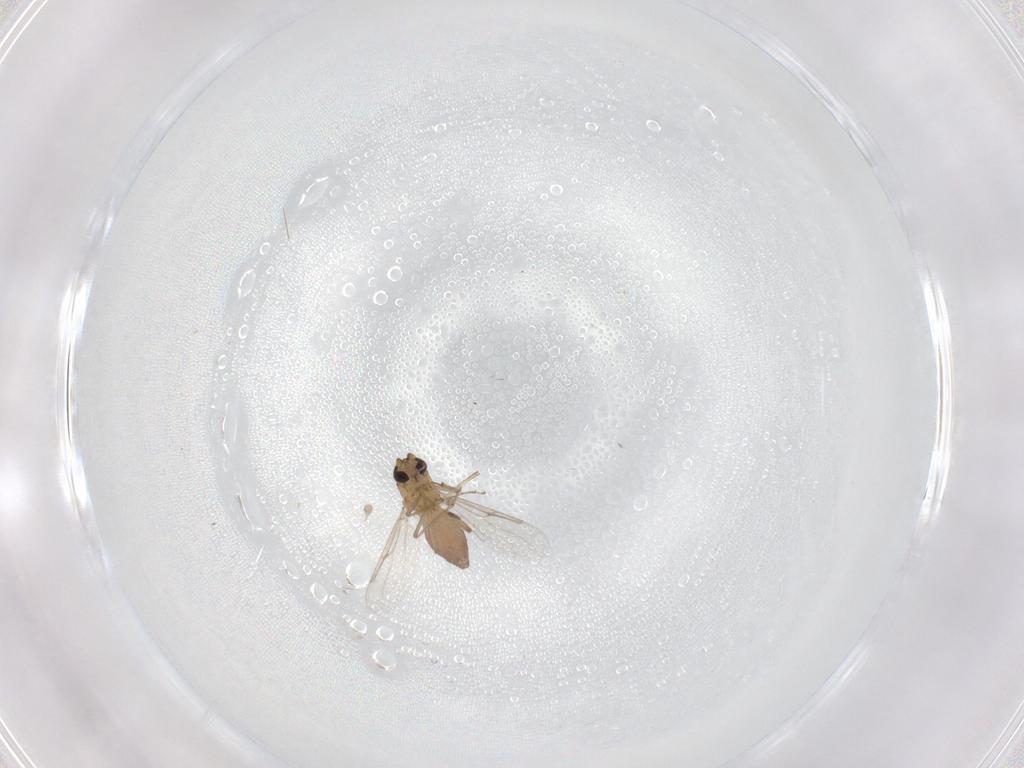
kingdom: Animalia
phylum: Arthropoda
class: Insecta
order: Diptera
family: Ceratopogonidae
